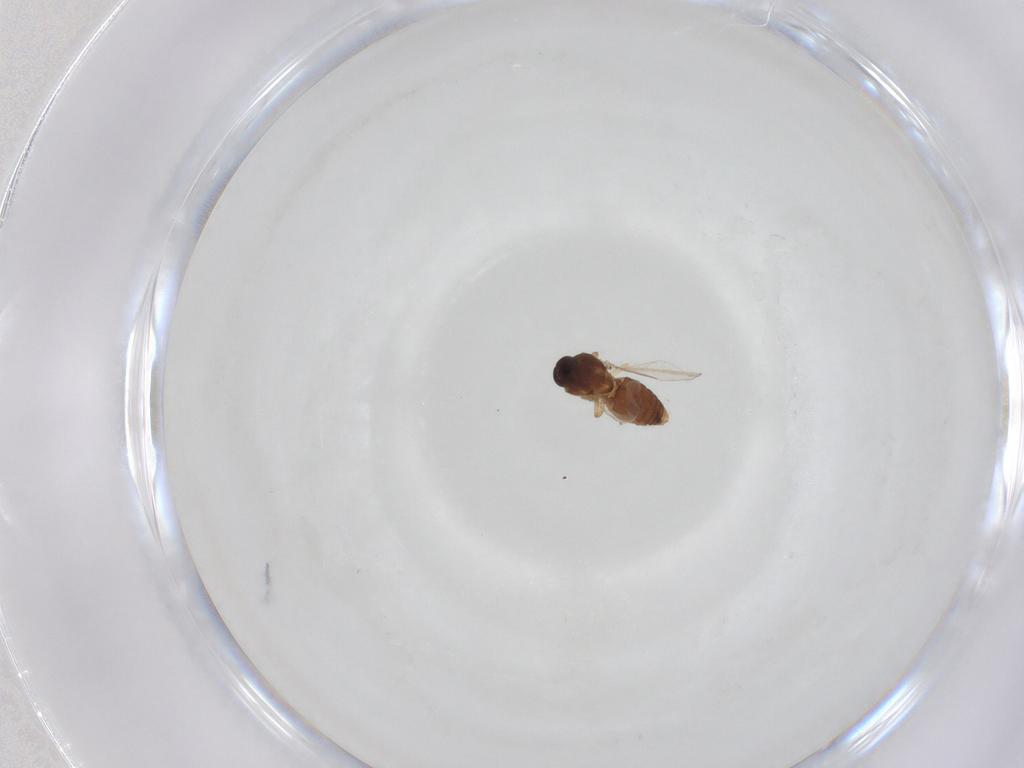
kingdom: Animalia
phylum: Arthropoda
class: Insecta
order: Diptera
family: Ceratopogonidae
